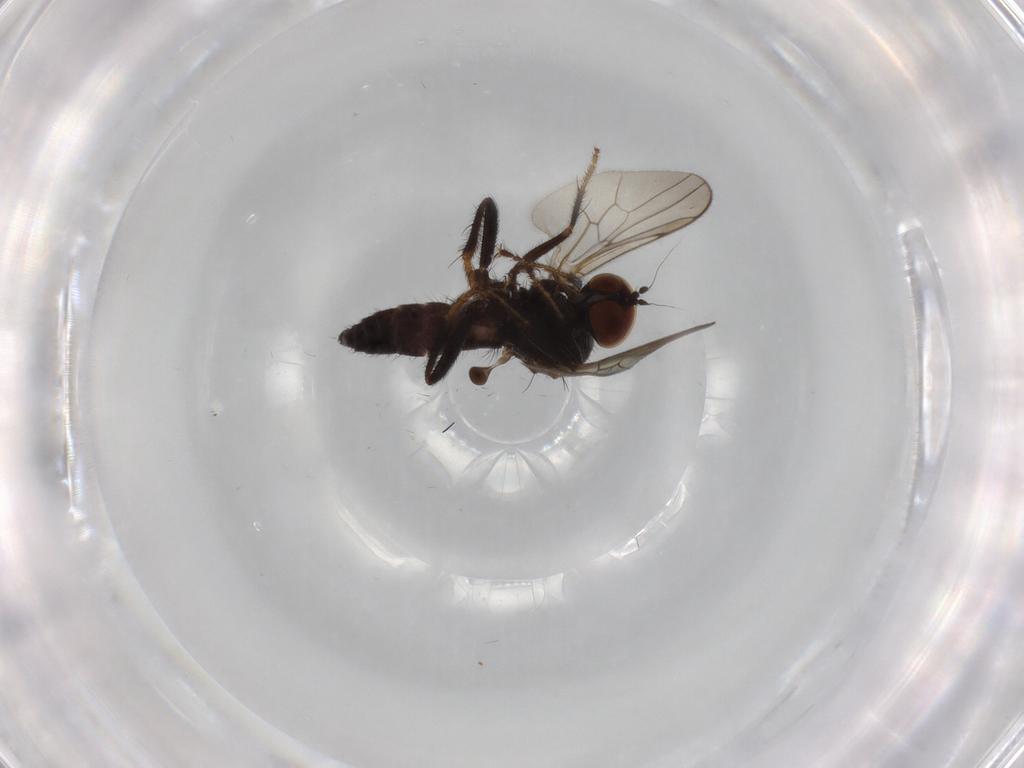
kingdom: Animalia
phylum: Arthropoda
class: Insecta
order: Diptera
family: Hybotidae
